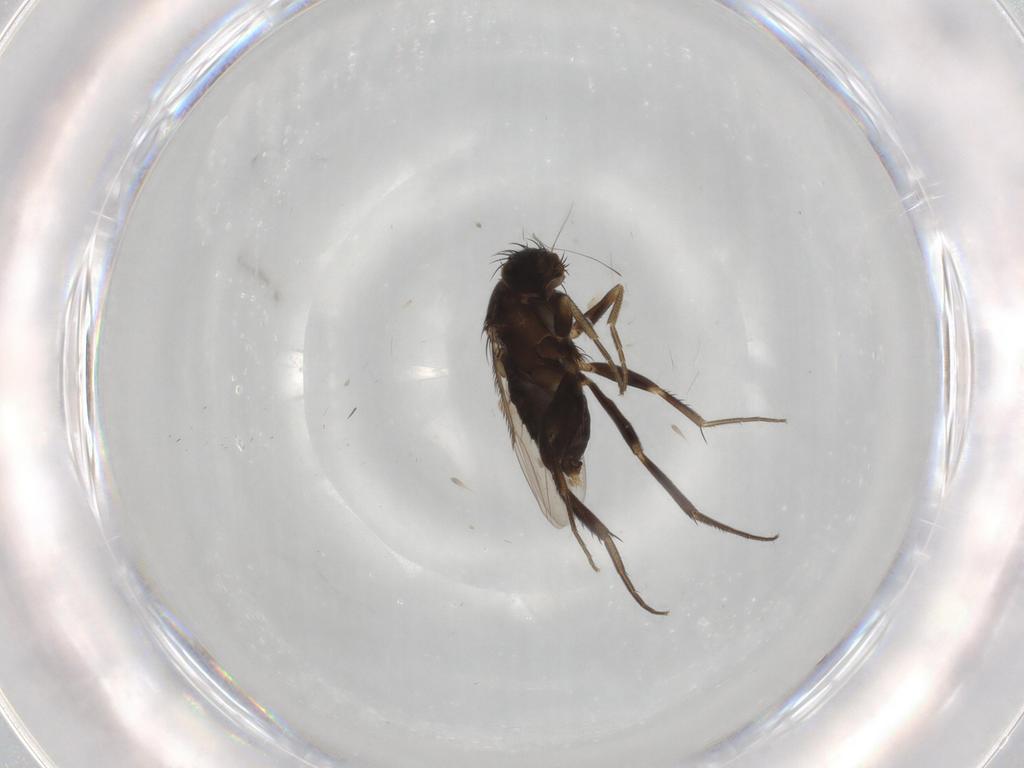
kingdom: Animalia
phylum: Arthropoda
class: Insecta
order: Diptera
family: Phoridae
